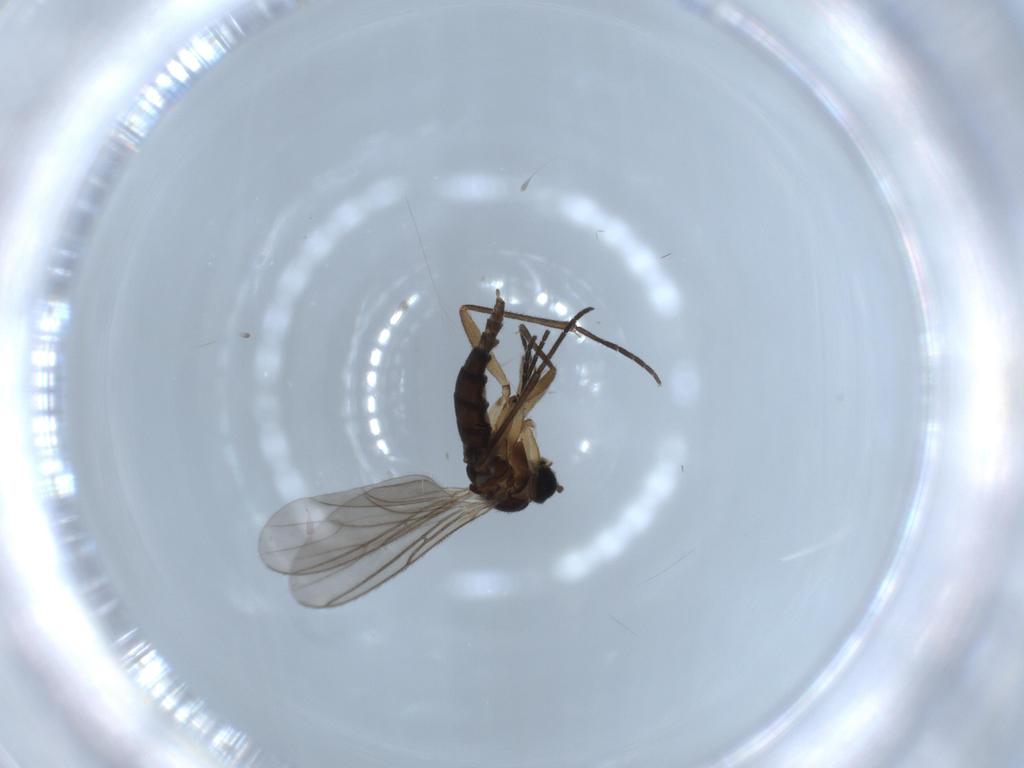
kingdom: Animalia
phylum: Arthropoda
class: Insecta
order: Diptera
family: Sciaridae
